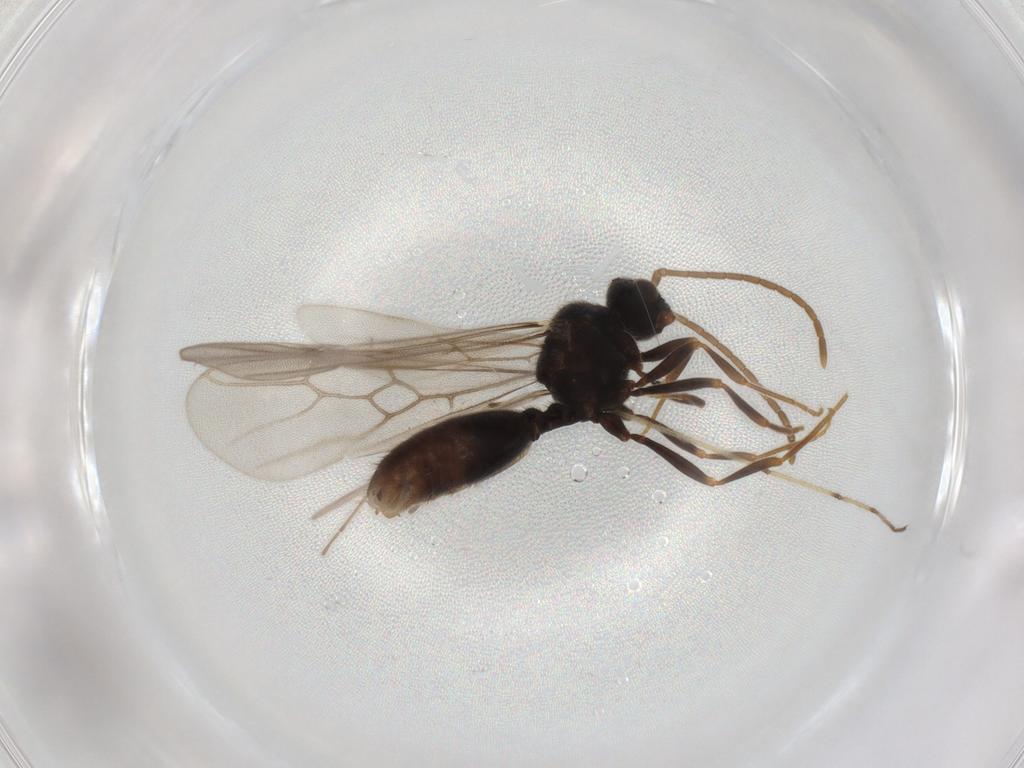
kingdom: Animalia
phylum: Arthropoda
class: Insecta
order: Hymenoptera
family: Formicidae
